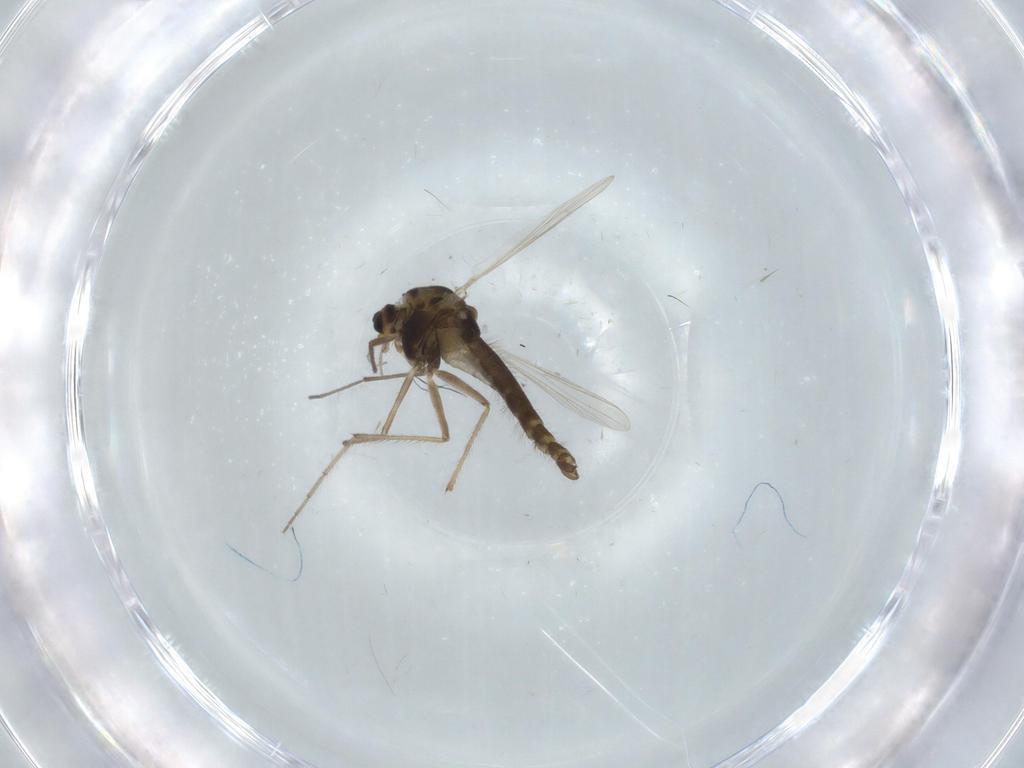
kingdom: Animalia
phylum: Arthropoda
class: Insecta
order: Diptera
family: Chironomidae
